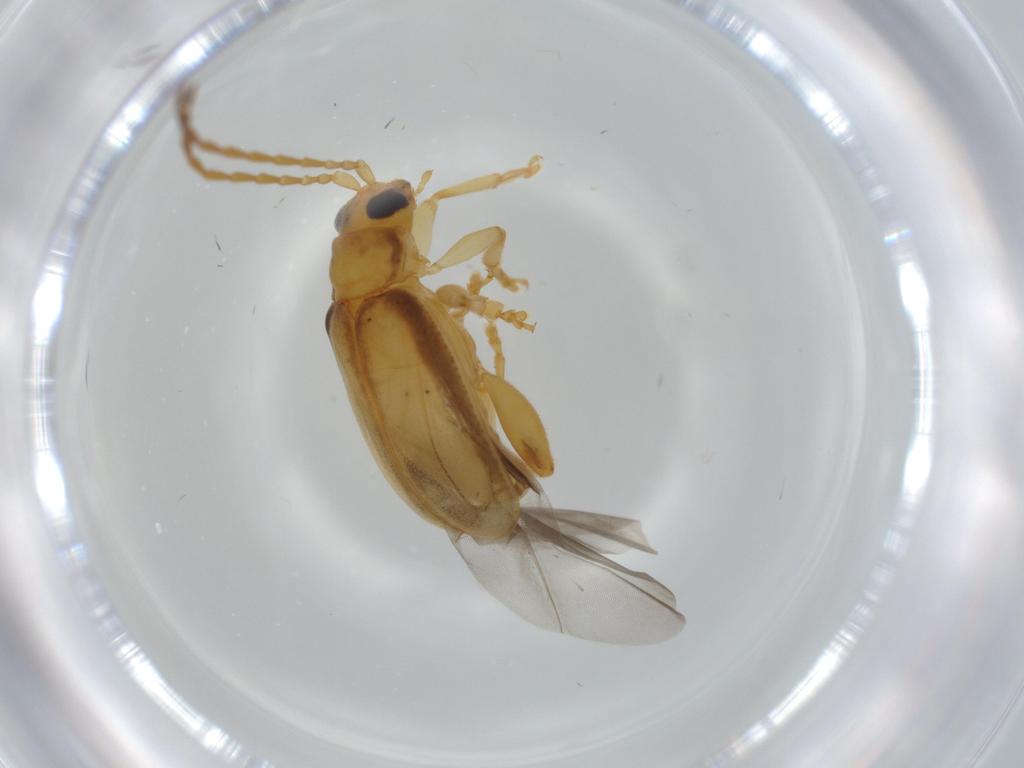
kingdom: Animalia
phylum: Arthropoda
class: Insecta
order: Coleoptera
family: Chrysomelidae
